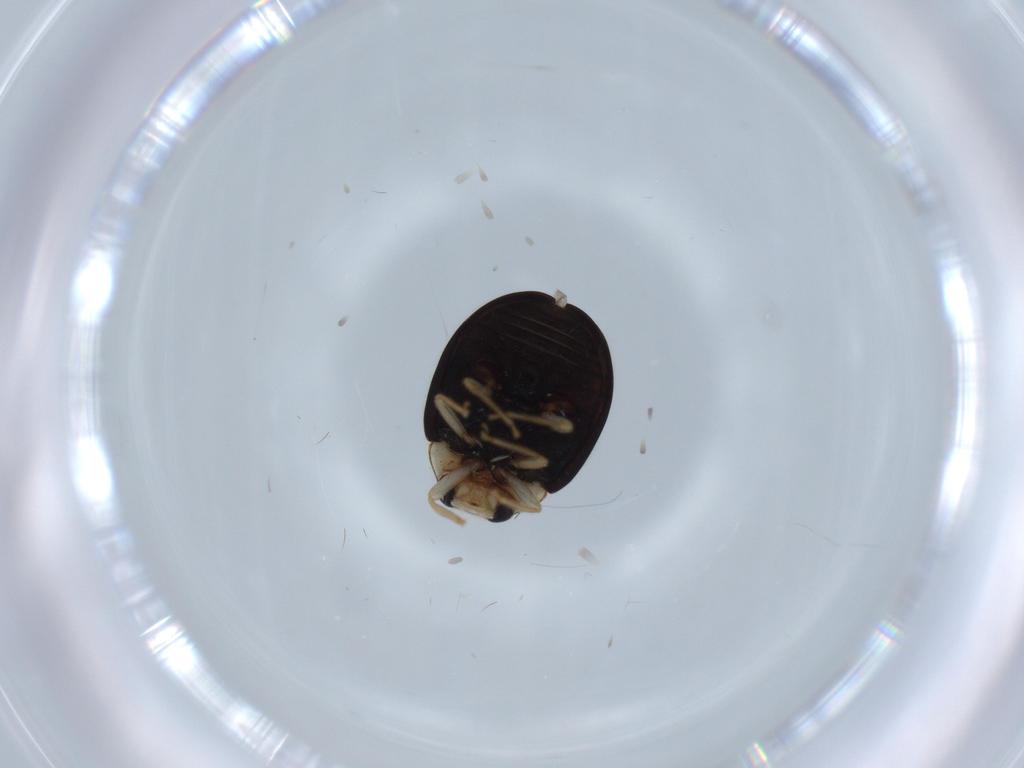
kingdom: Animalia
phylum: Arthropoda
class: Insecta
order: Coleoptera
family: Coccinellidae
